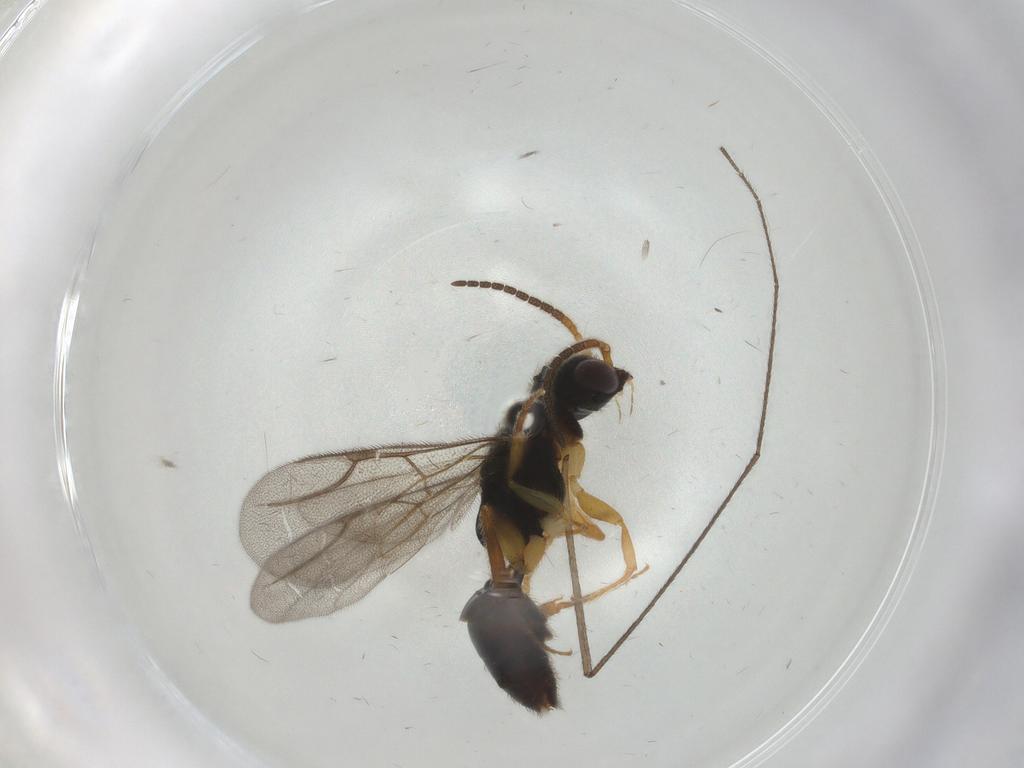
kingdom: Animalia
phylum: Arthropoda
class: Insecta
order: Hymenoptera
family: Bethylidae
